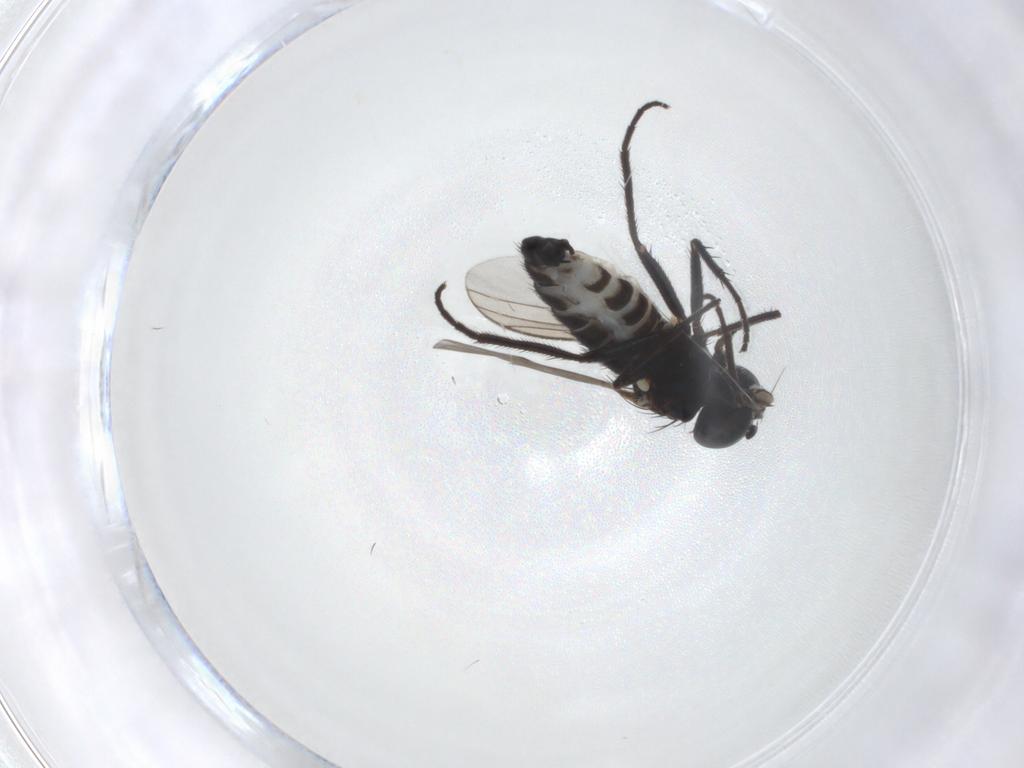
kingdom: Animalia
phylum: Arthropoda
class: Insecta
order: Diptera
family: Dolichopodidae
